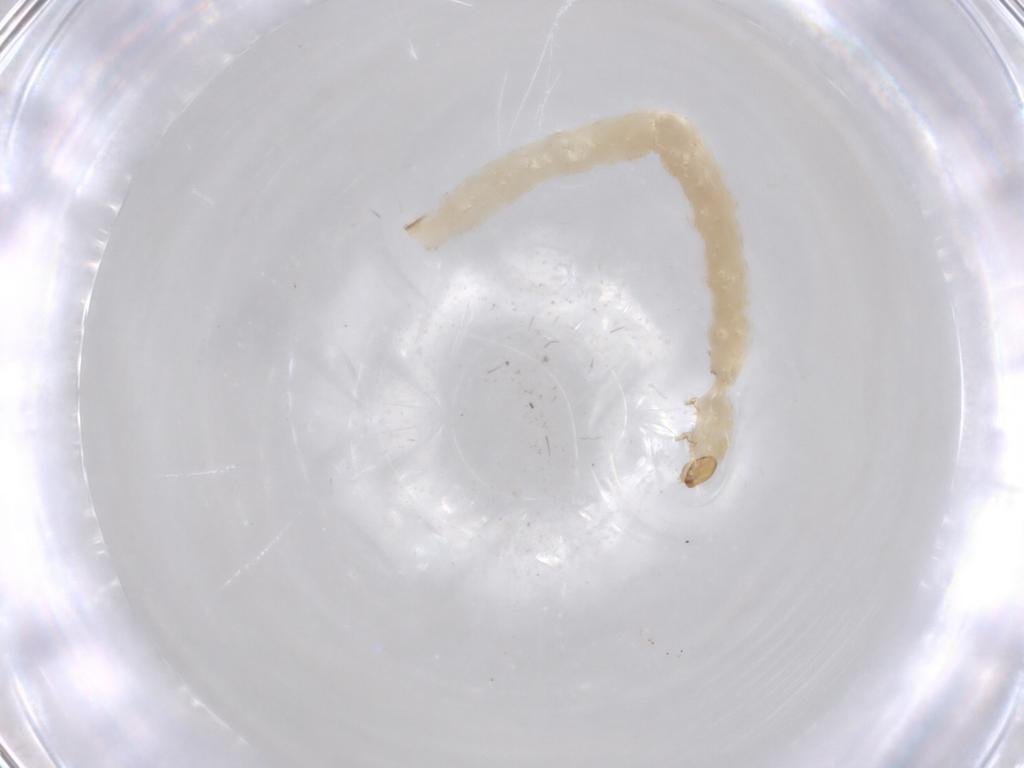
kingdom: Animalia
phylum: Arthropoda
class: Insecta
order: Coleoptera
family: Chrysomelidae
